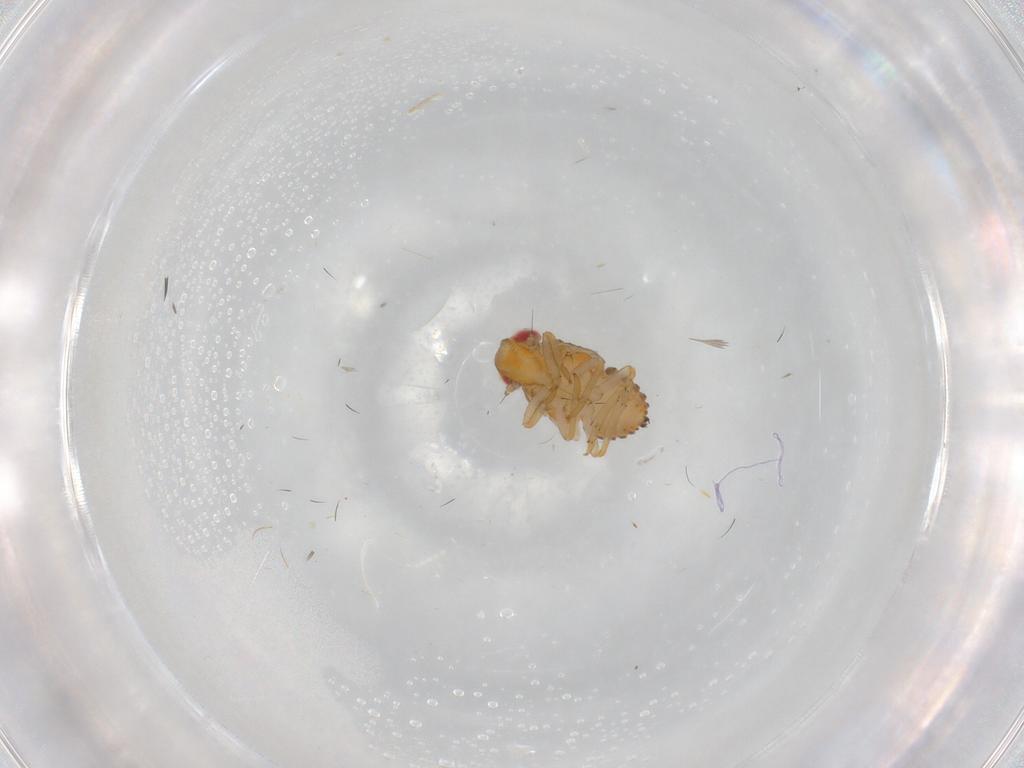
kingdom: Animalia
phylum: Arthropoda
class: Insecta
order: Hemiptera
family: Issidae
